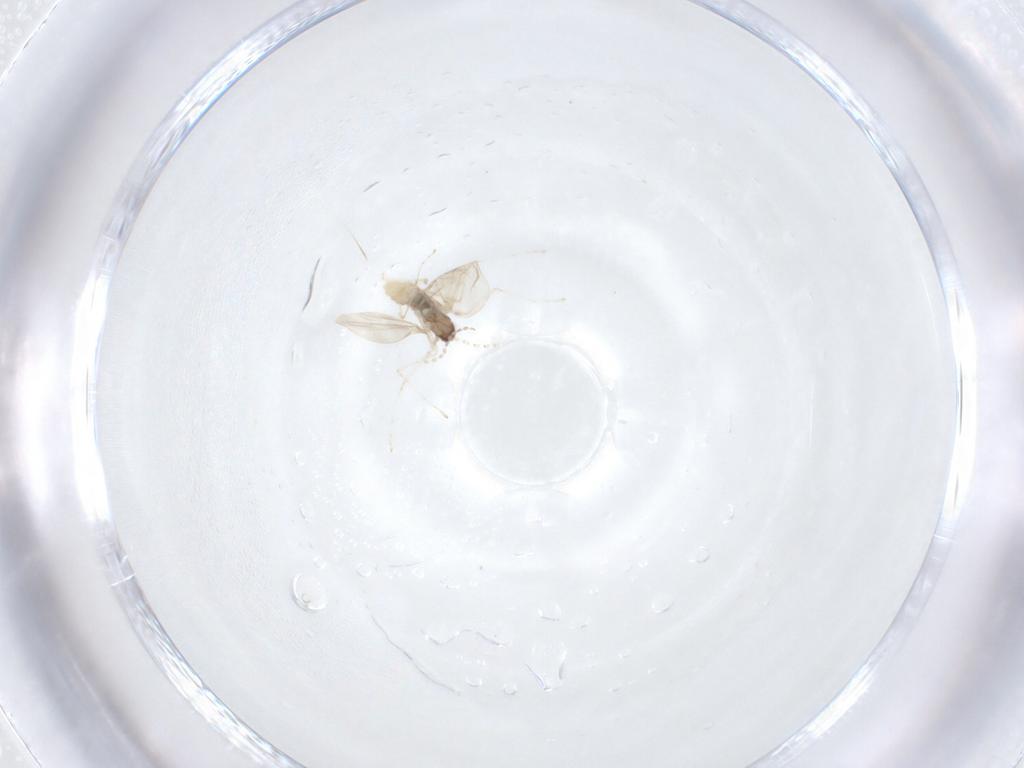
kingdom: Animalia
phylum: Arthropoda
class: Insecta
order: Diptera
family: Cecidomyiidae
